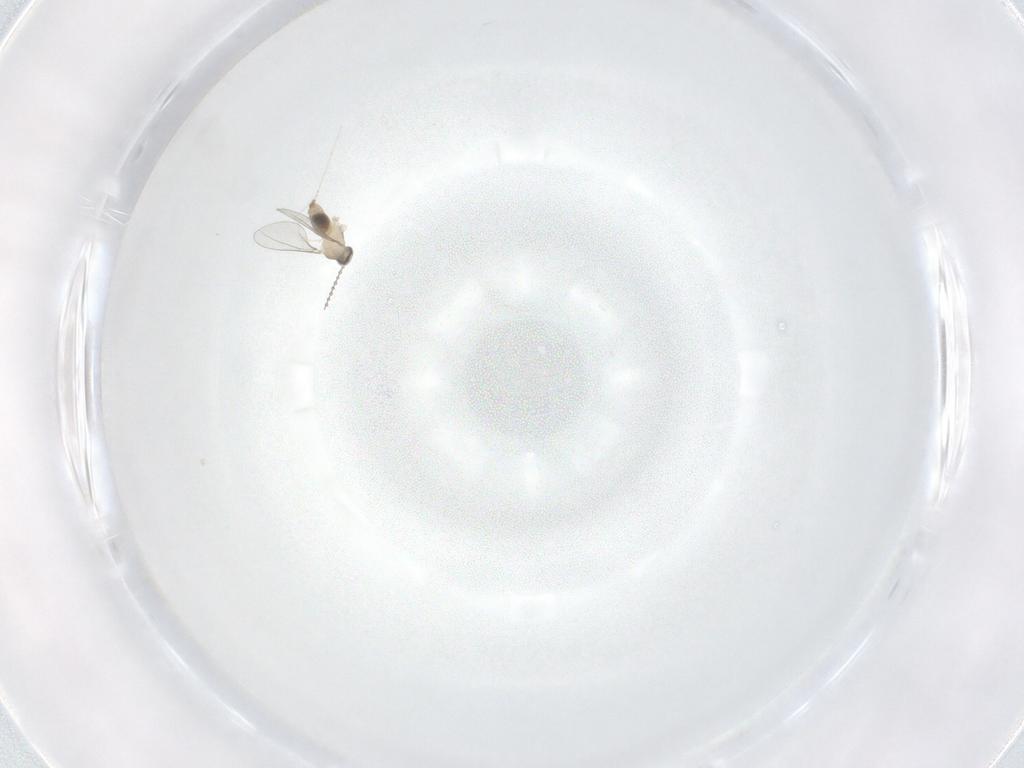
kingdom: Animalia
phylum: Arthropoda
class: Insecta
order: Diptera
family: Cecidomyiidae
